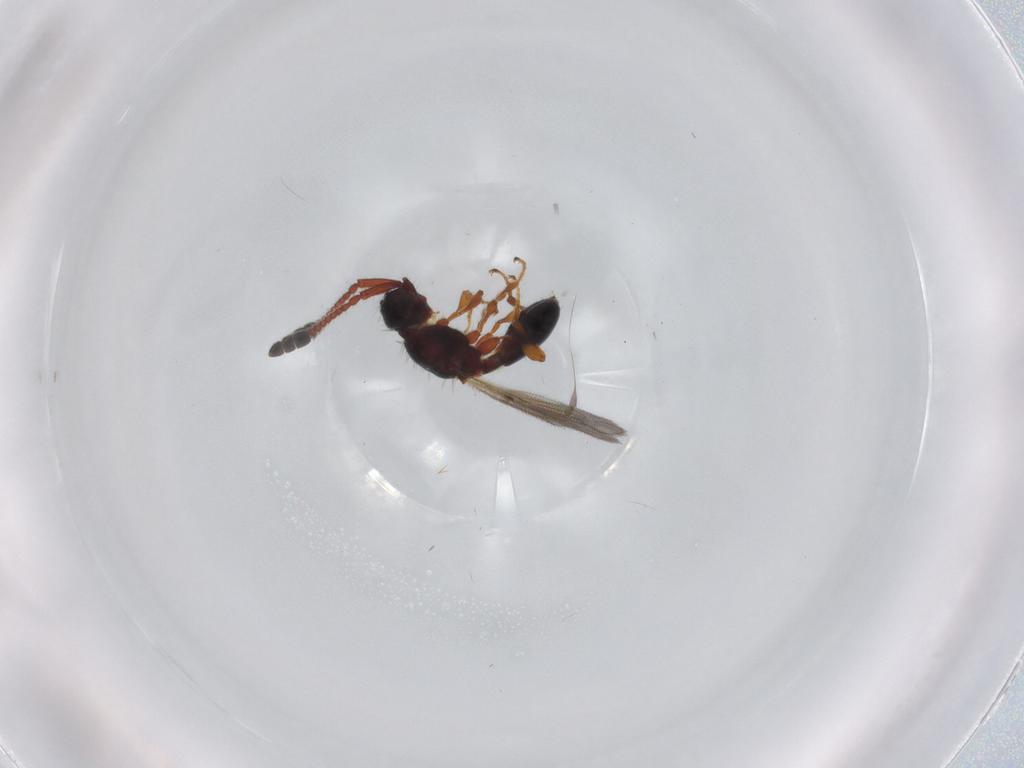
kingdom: Animalia
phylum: Arthropoda
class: Insecta
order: Hymenoptera
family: Diapriidae
